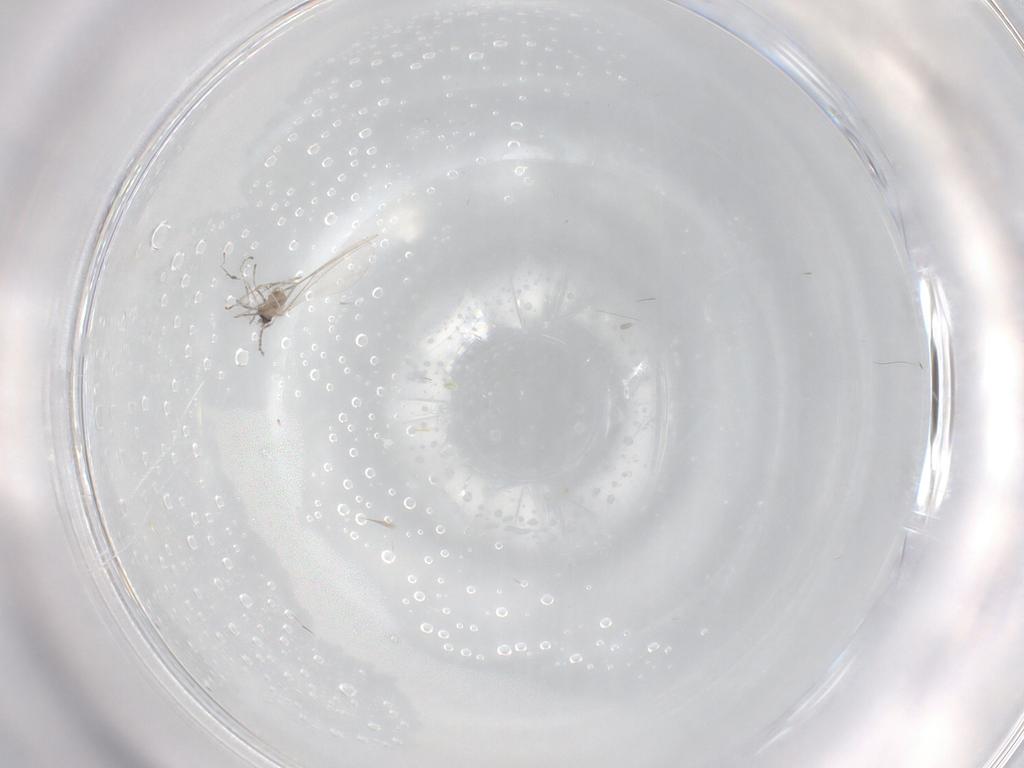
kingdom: Animalia
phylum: Arthropoda
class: Insecta
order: Diptera
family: Cecidomyiidae
